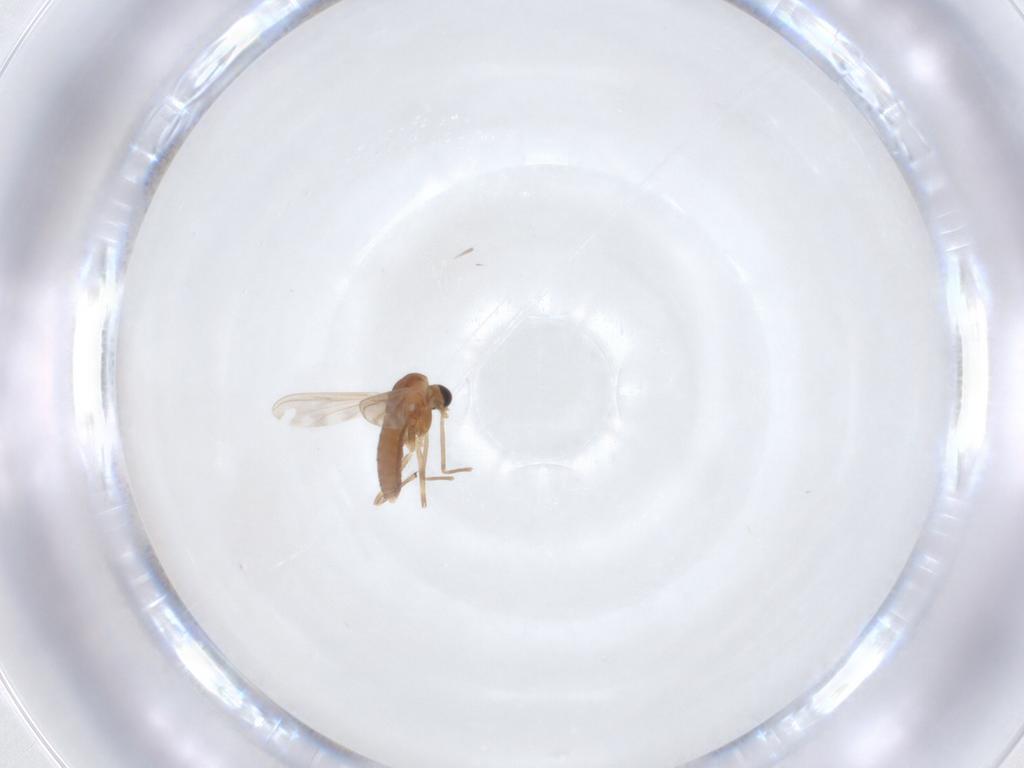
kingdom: Animalia
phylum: Arthropoda
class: Insecta
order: Diptera
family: Chironomidae
